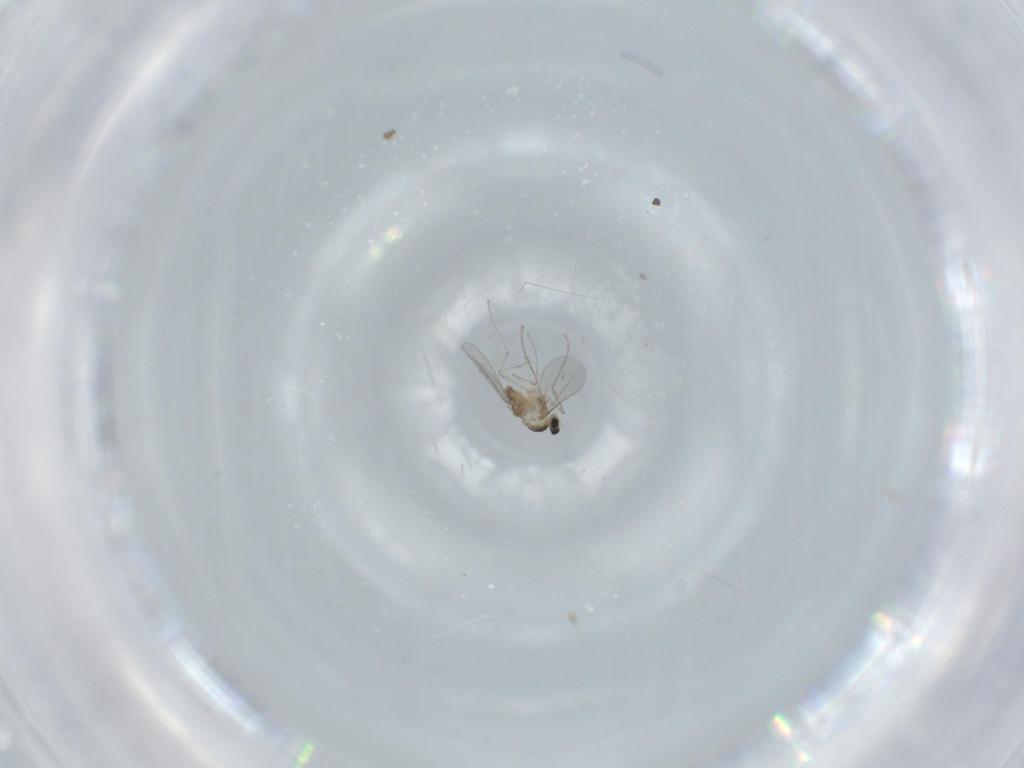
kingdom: Animalia
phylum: Arthropoda
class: Insecta
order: Diptera
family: Cecidomyiidae
